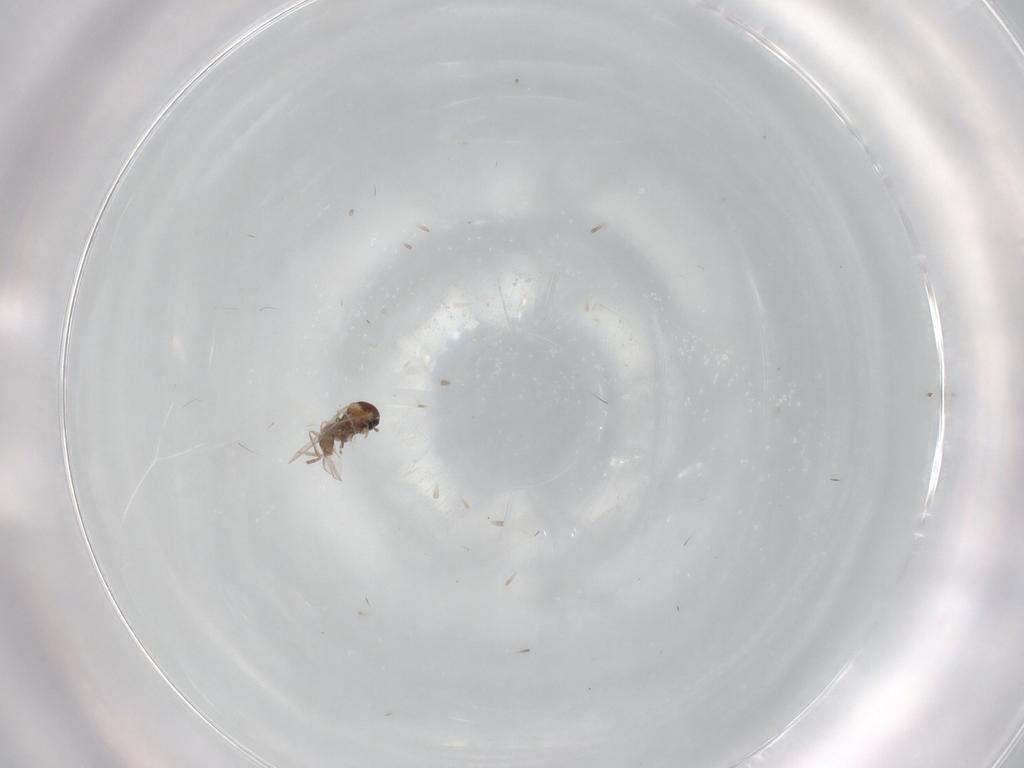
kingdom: Animalia
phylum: Arthropoda
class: Insecta
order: Diptera
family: Cecidomyiidae
